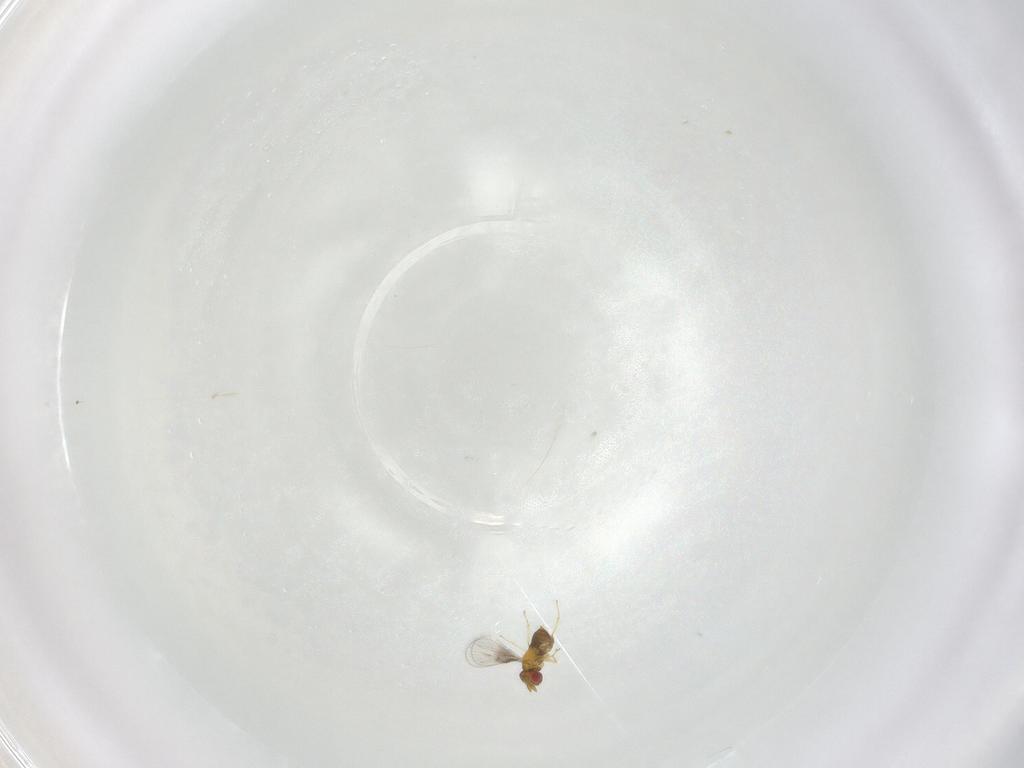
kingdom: Animalia
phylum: Arthropoda
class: Insecta
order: Hymenoptera
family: Trichogrammatidae
